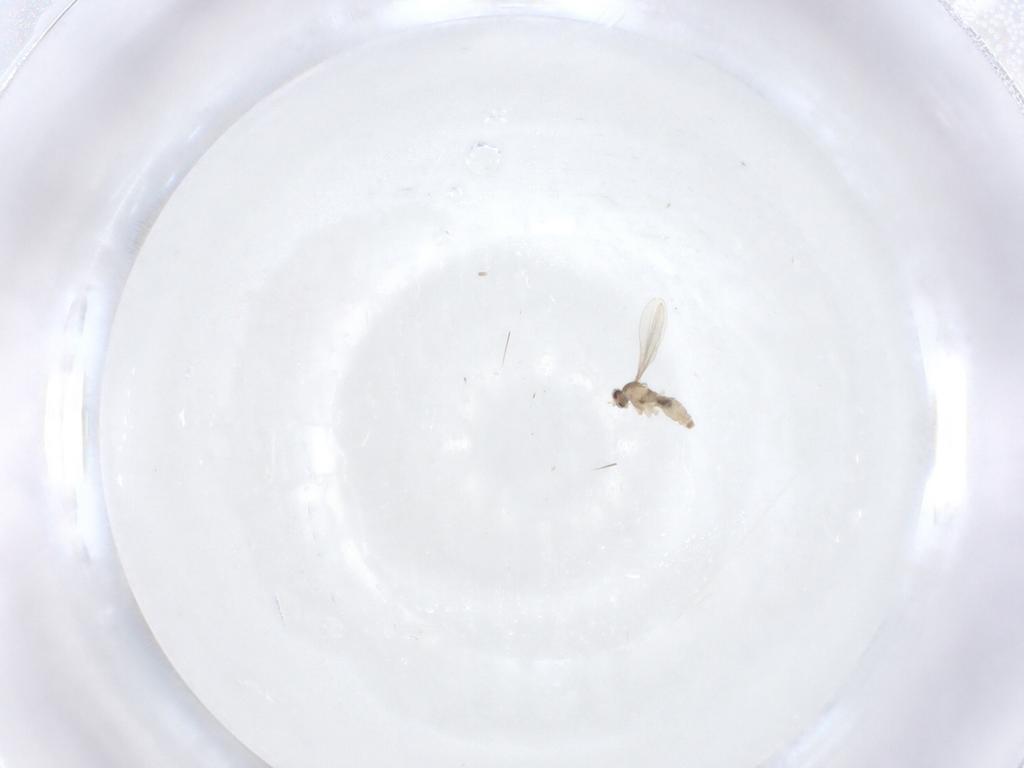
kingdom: Animalia
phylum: Arthropoda
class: Insecta
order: Diptera
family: Cecidomyiidae
